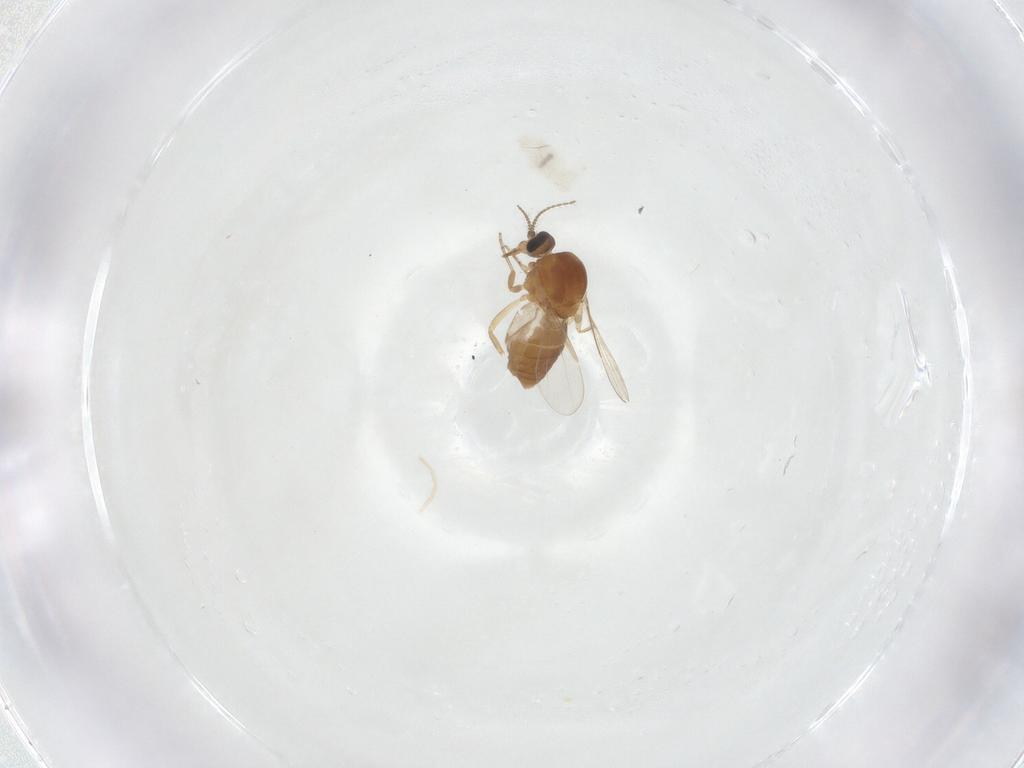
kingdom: Animalia
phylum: Arthropoda
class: Insecta
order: Diptera
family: Ceratopogonidae
